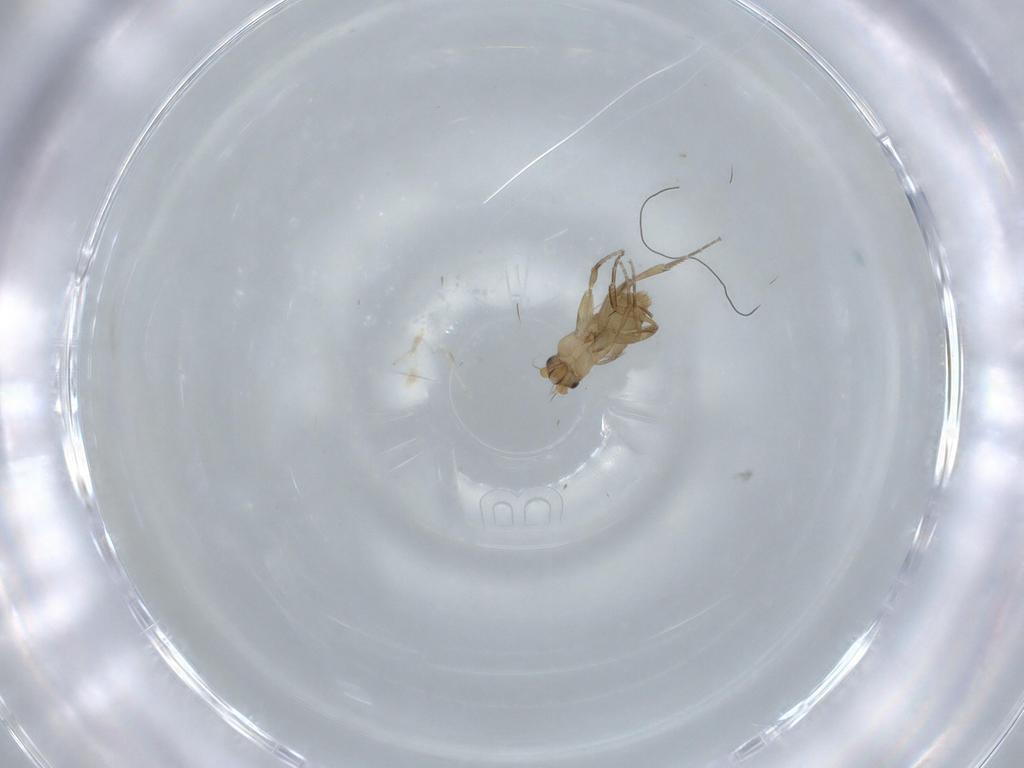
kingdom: Animalia
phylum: Arthropoda
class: Insecta
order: Diptera
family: Phoridae
